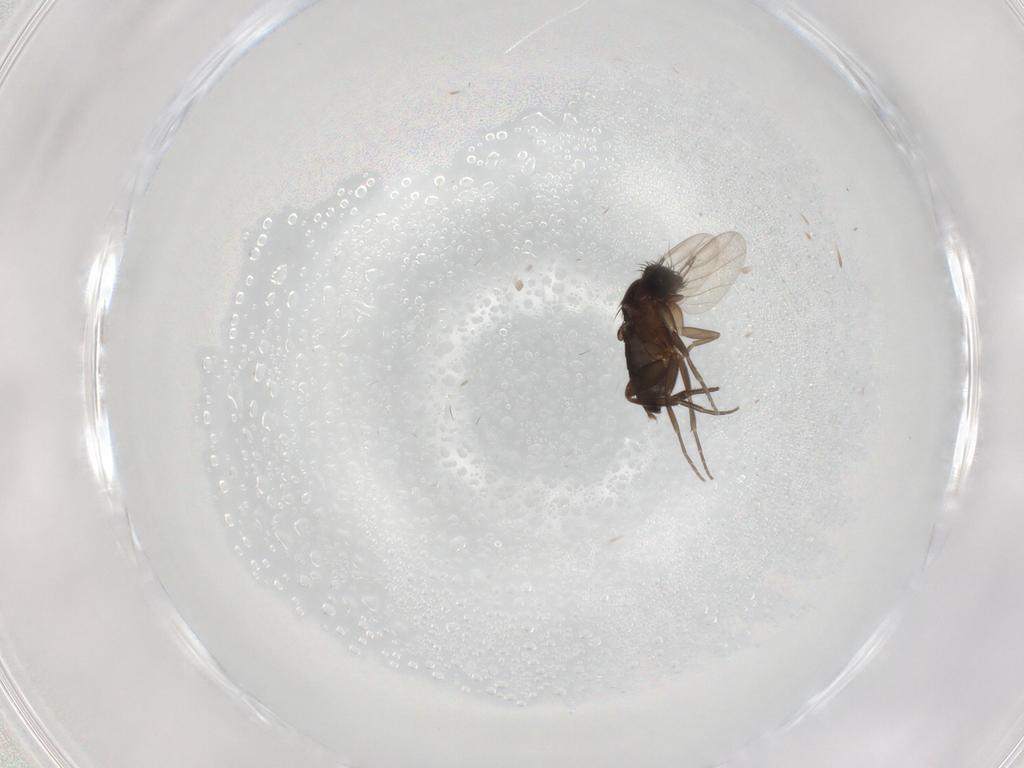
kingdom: Animalia
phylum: Arthropoda
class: Insecta
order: Diptera
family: Phoridae
